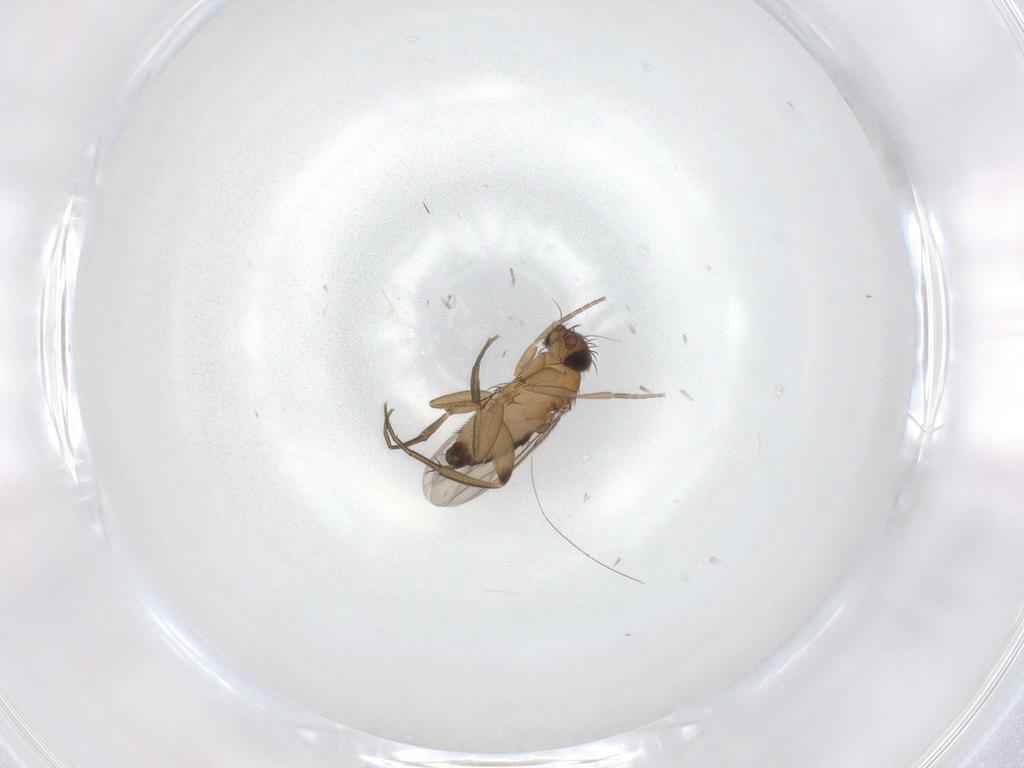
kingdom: Animalia
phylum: Arthropoda
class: Insecta
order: Diptera
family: Phoridae
